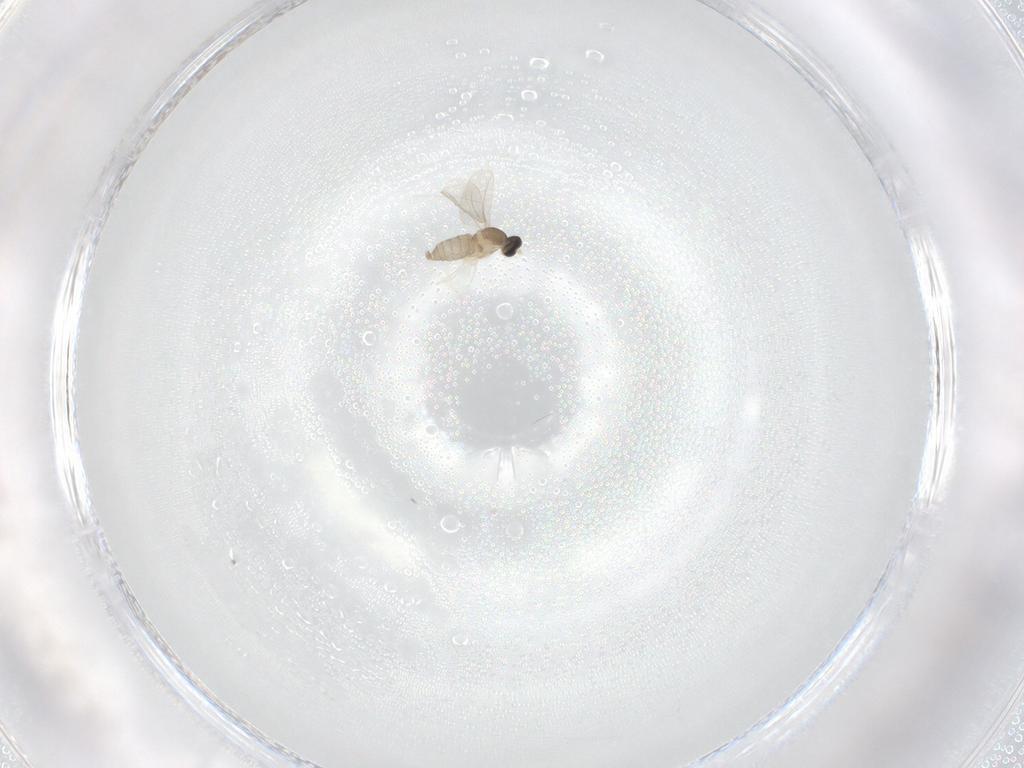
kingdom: Animalia
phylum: Arthropoda
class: Insecta
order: Diptera
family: Cecidomyiidae
